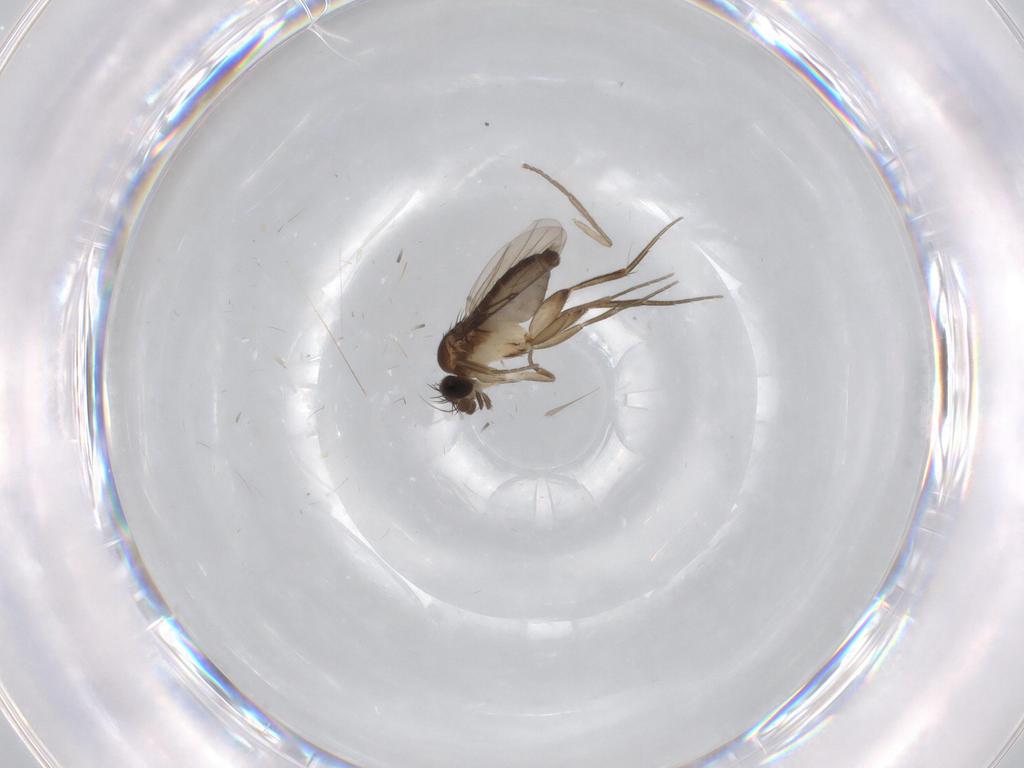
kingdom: Animalia
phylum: Arthropoda
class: Insecta
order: Diptera
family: Phoridae
